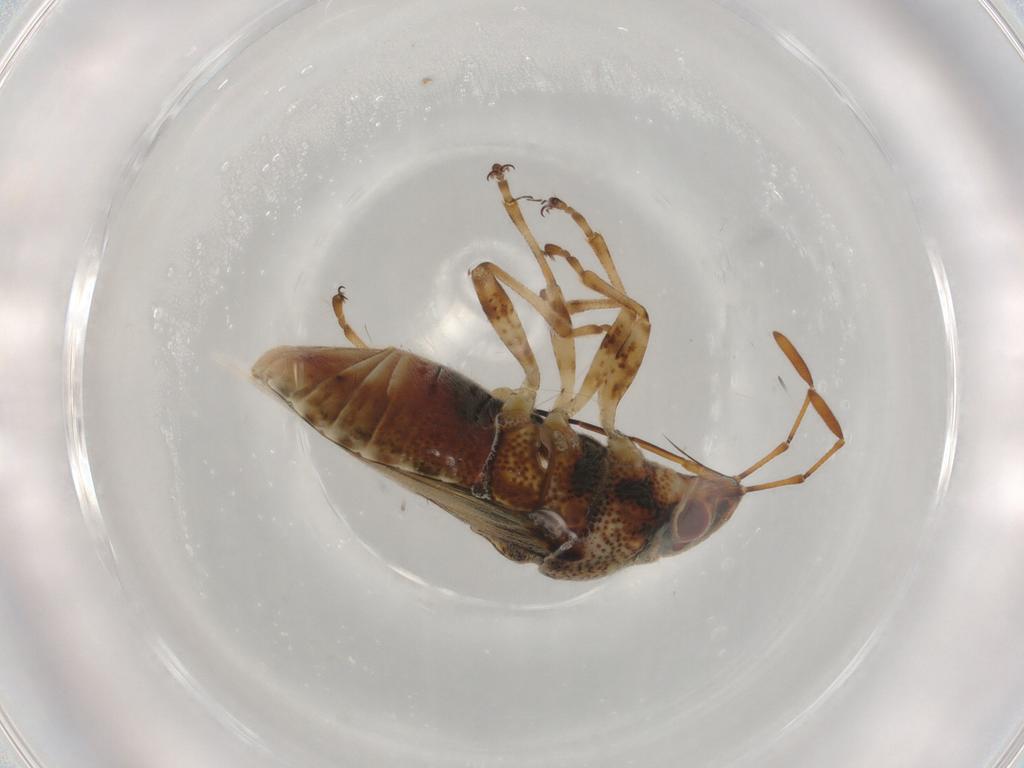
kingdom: Animalia
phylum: Arthropoda
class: Insecta
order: Hemiptera
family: Lygaeidae
